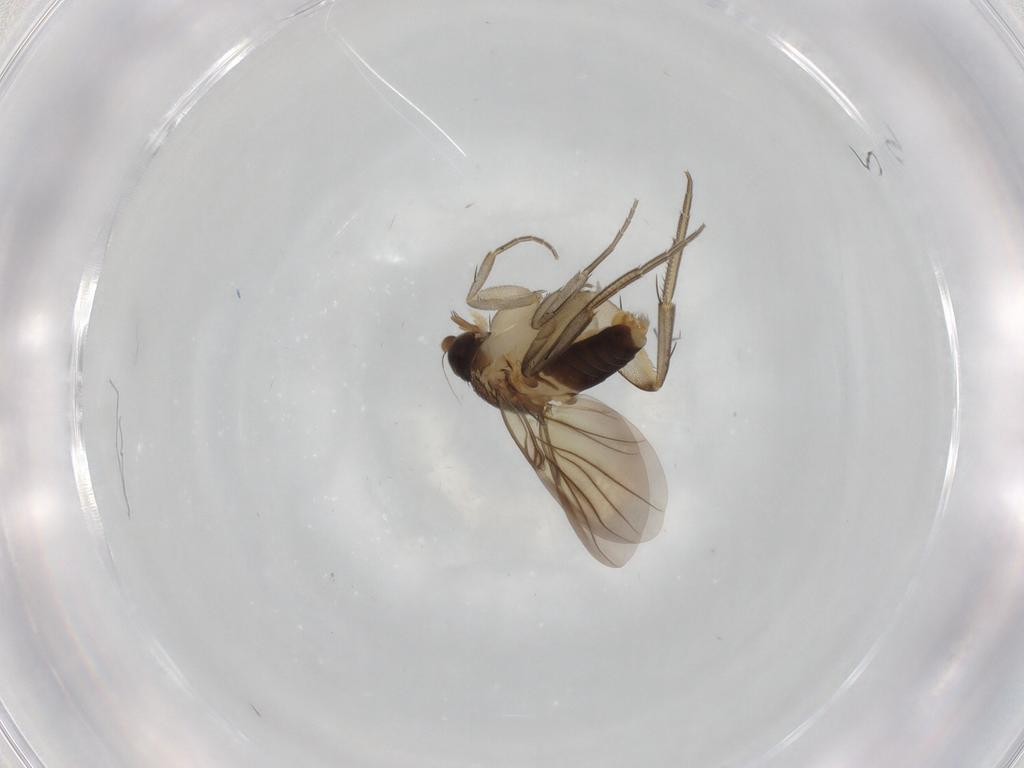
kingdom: Animalia
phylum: Arthropoda
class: Insecta
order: Diptera
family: Phoridae
